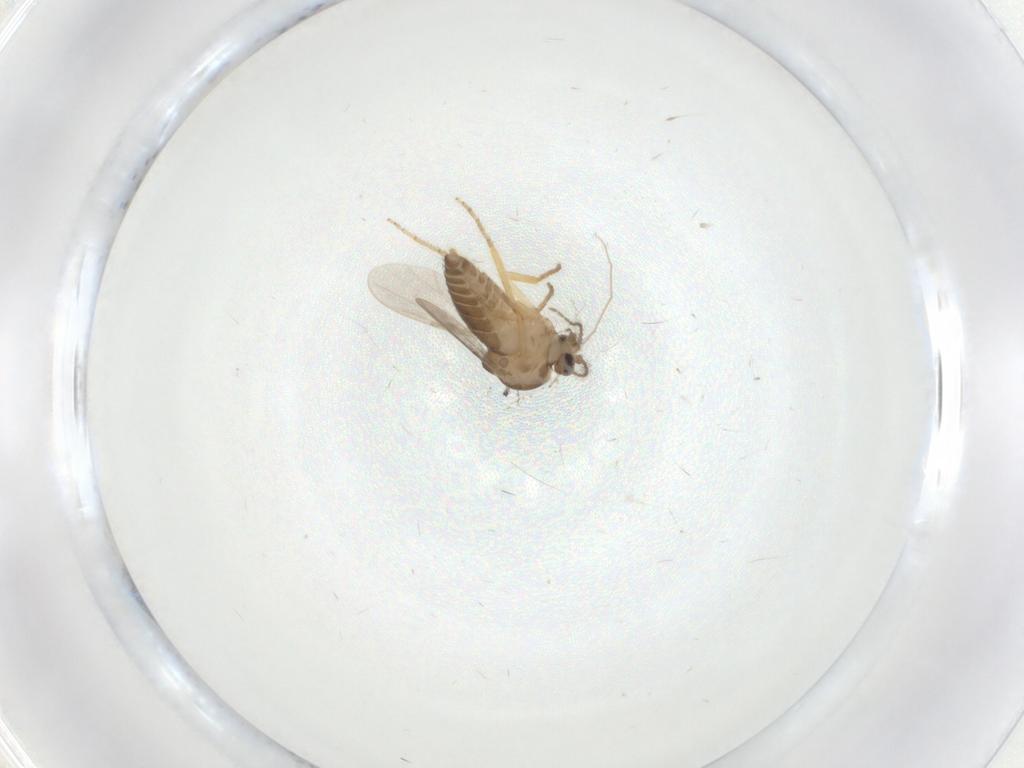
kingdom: Animalia
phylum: Arthropoda
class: Insecta
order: Diptera
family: Ceratopogonidae
